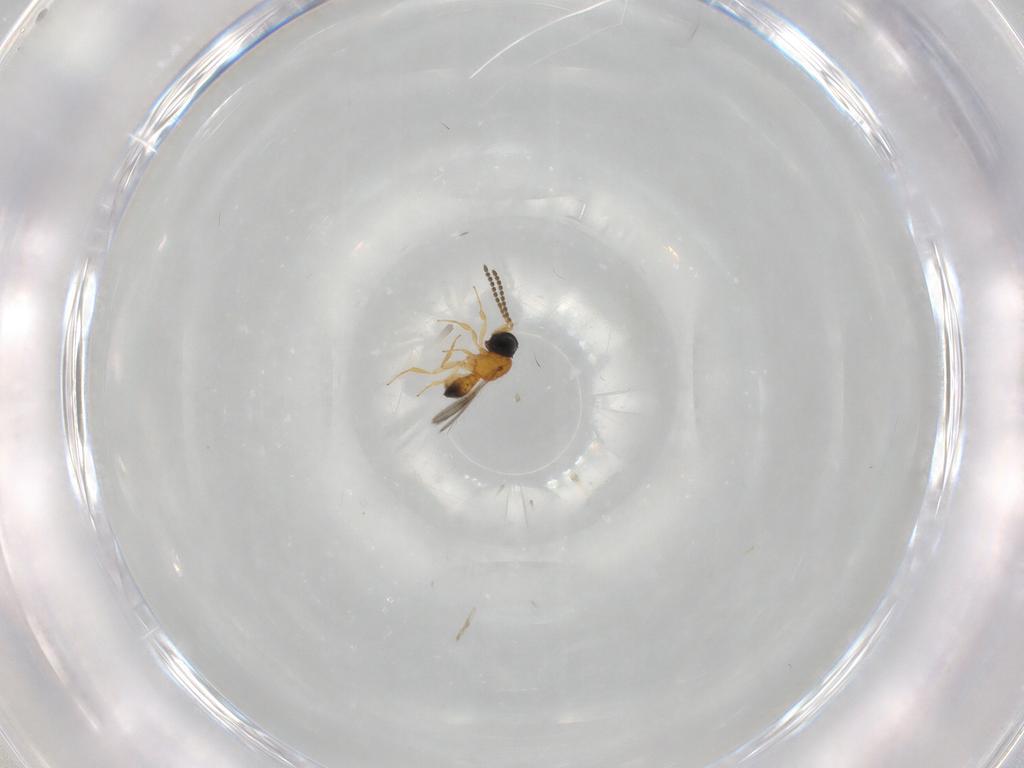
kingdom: Animalia
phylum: Arthropoda
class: Insecta
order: Hymenoptera
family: Scelionidae
